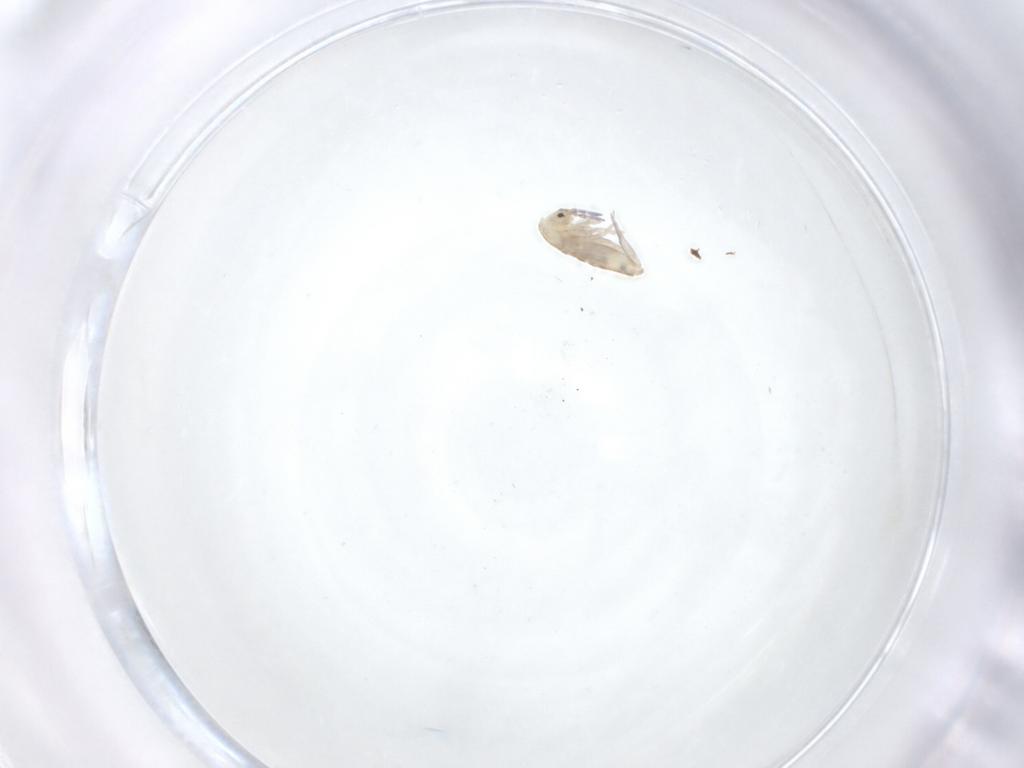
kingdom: Animalia
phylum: Arthropoda
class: Collembola
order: Entomobryomorpha
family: Entomobryidae
